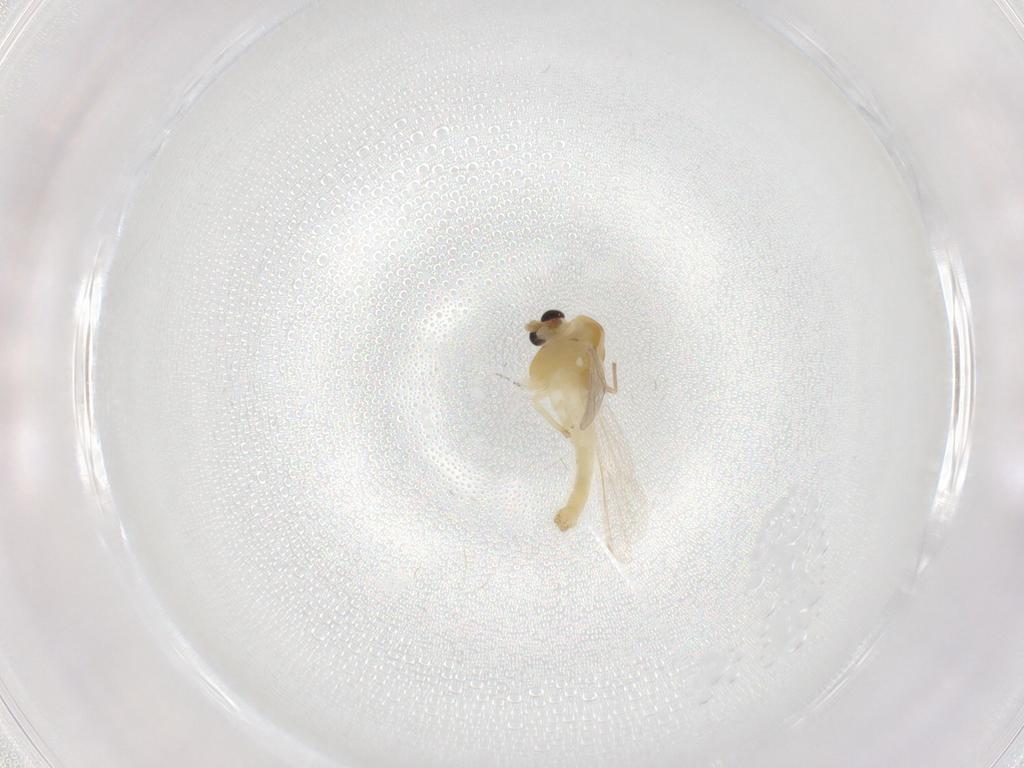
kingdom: Animalia
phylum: Arthropoda
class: Insecta
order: Diptera
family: Chironomidae
